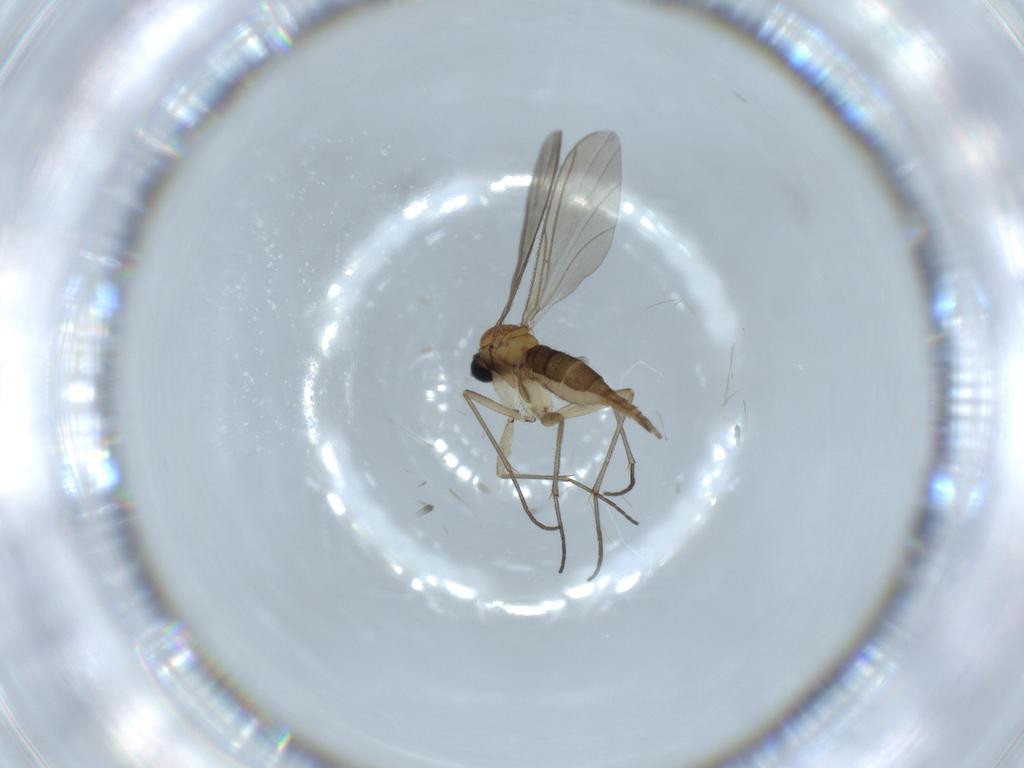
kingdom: Animalia
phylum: Arthropoda
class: Insecta
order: Diptera
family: Sciaridae
